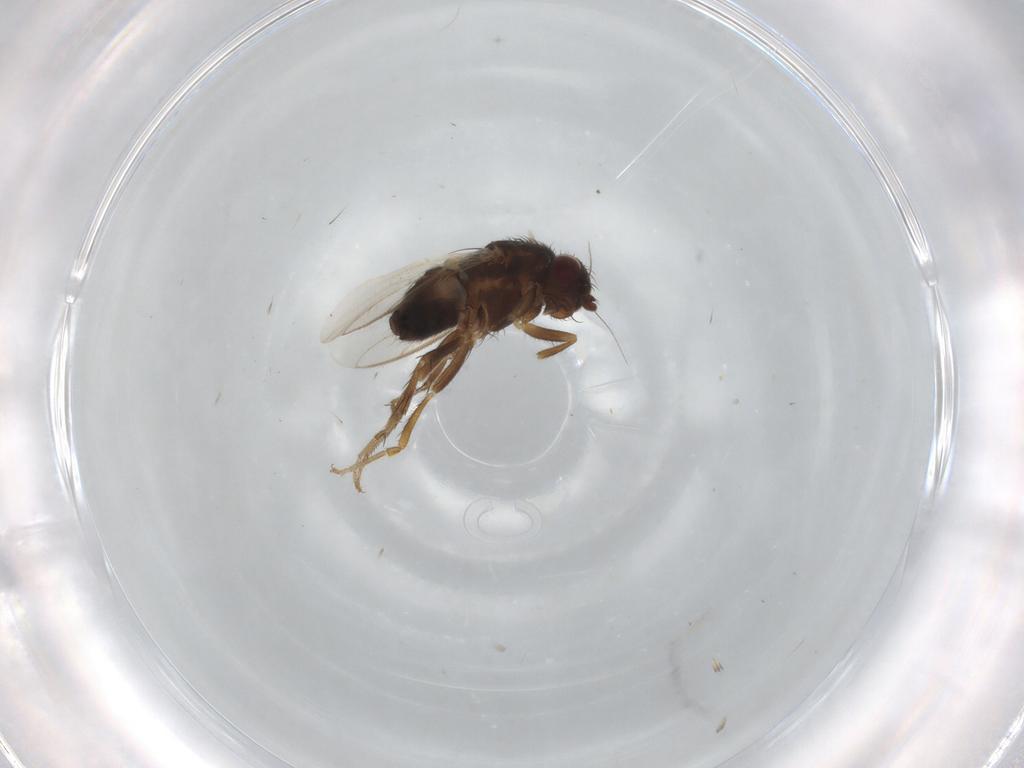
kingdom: Animalia
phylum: Arthropoda
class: Insecta
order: Diptera
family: Sphaeroceridae
